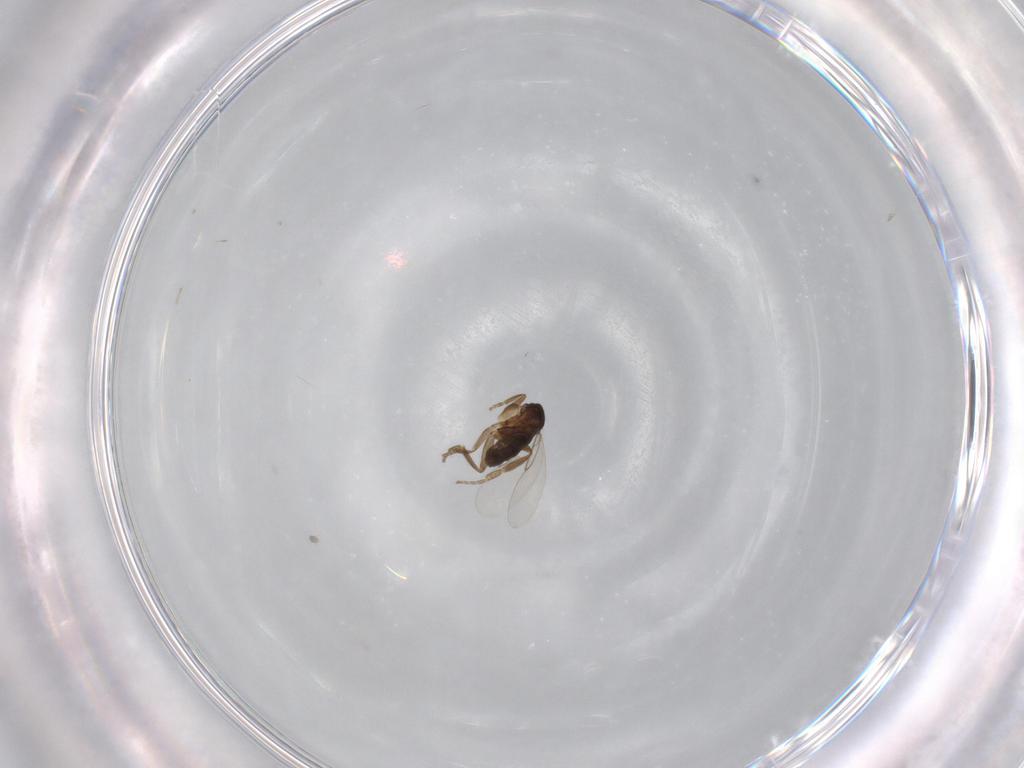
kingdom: Animalia
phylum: Arthropoda
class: Insecta
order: Diptera
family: Phoridae
